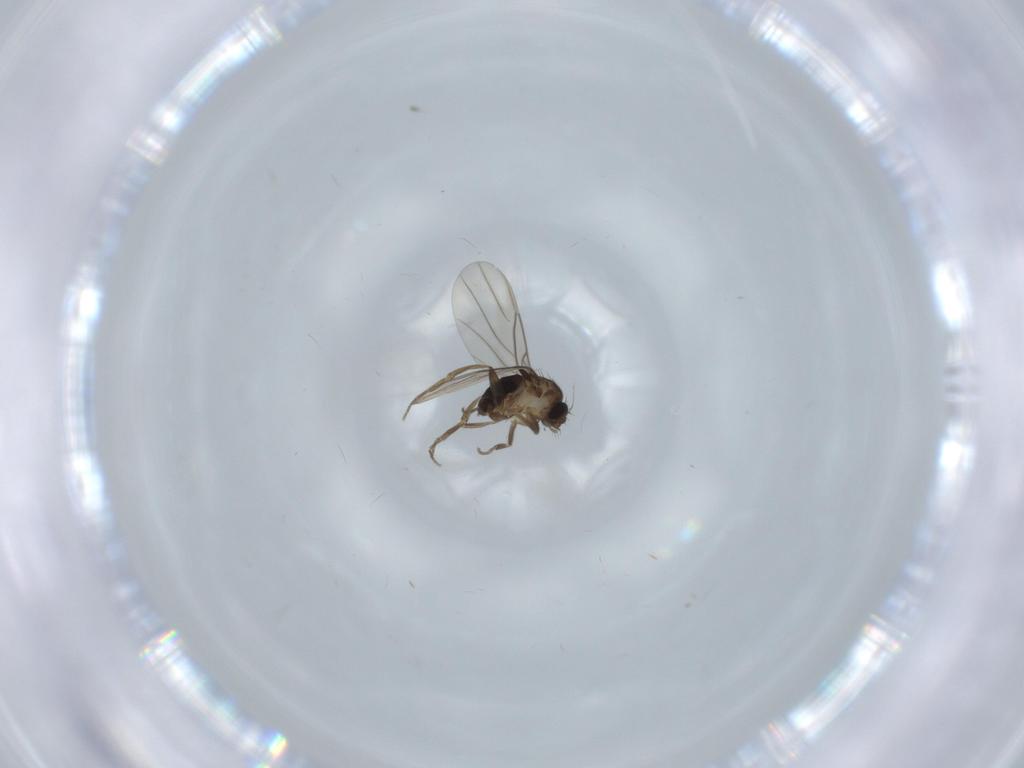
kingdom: Animalia
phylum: Arthropoda
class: Insecta
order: Diptera
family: Phoridae
